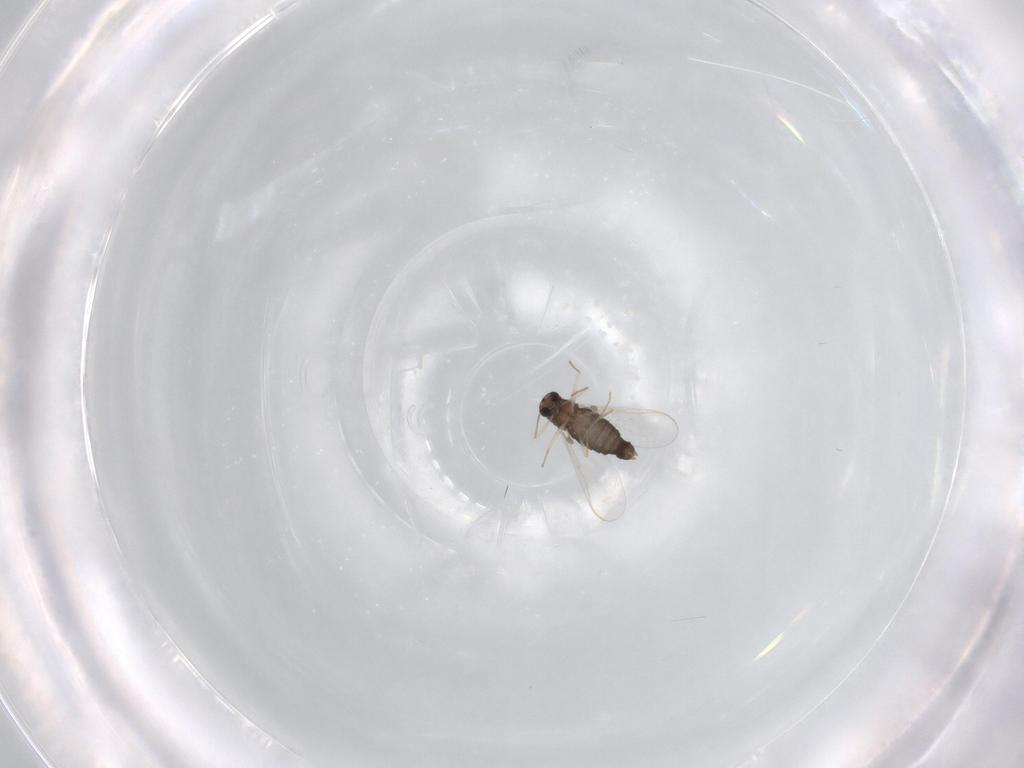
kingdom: Animalia
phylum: Arthropoda
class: Insecta
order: Diptera
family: Chironomidae
